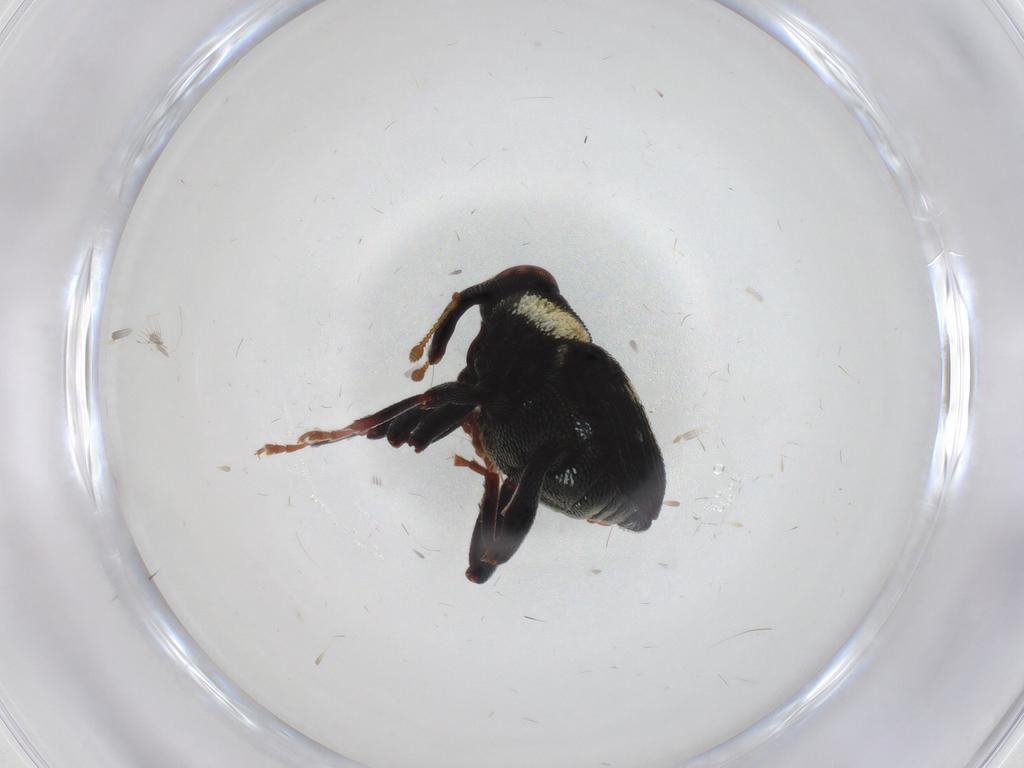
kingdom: Animalia
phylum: Arthropoda
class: Insecta
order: Coleoptera
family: Curculionidae
